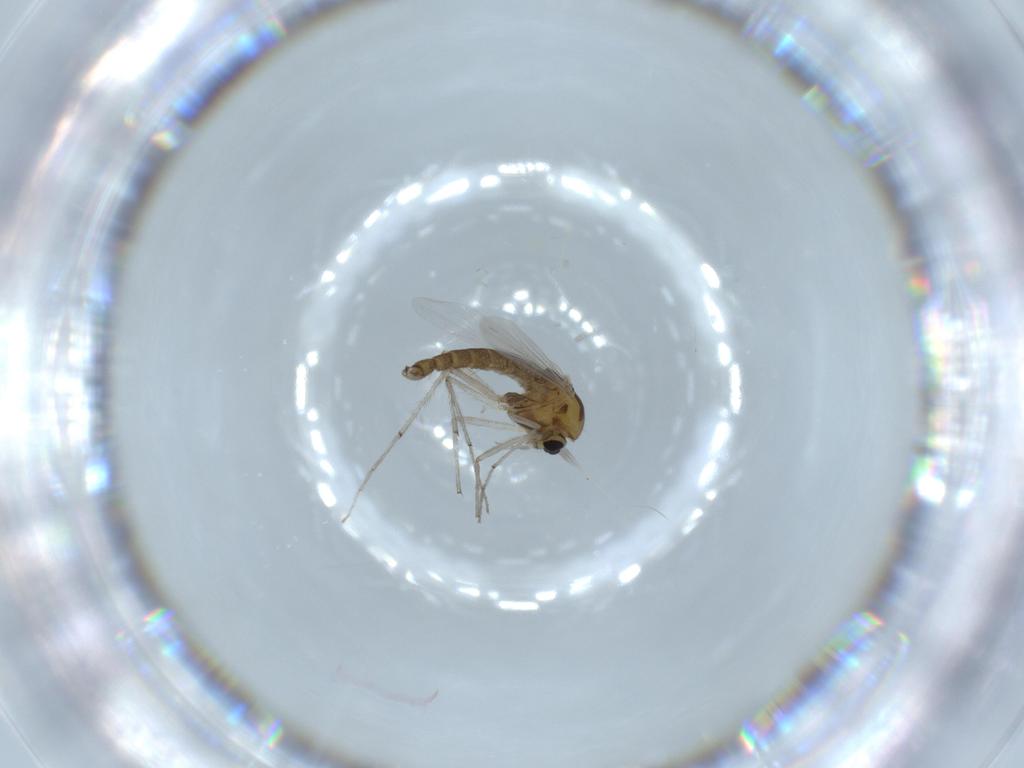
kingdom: Animalia
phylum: Arthropoda
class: Insecta
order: Diptera
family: Chironomidae
